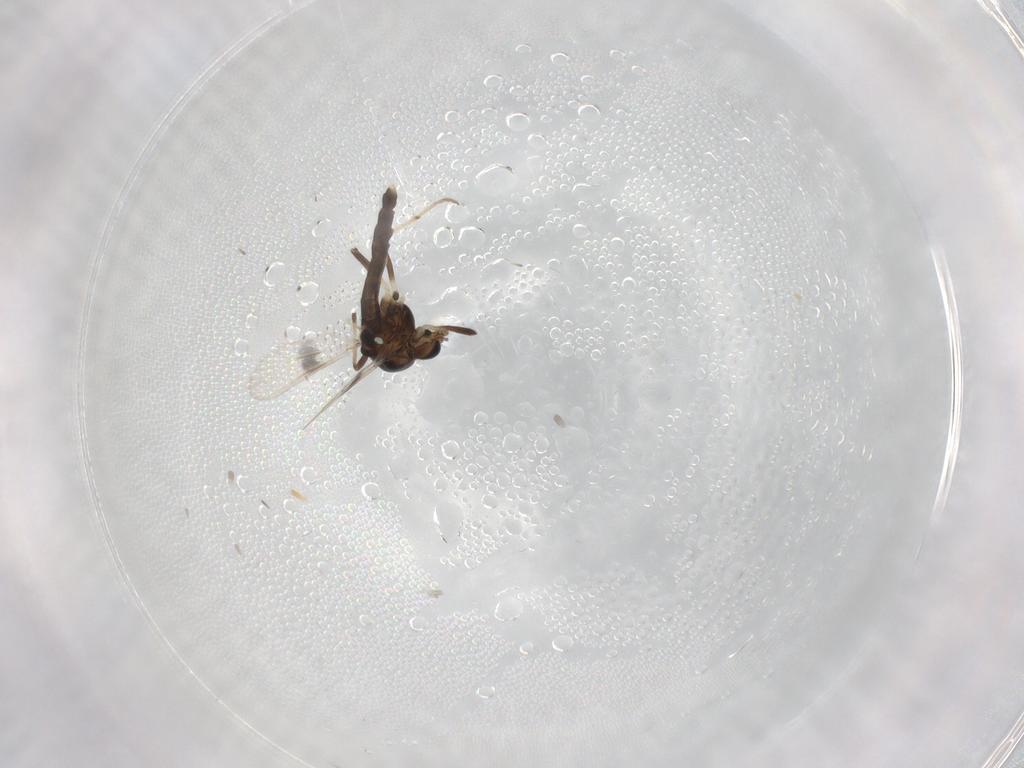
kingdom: Animalia
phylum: Arthropoda
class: Insecta
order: Diptera
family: Chironomidae
